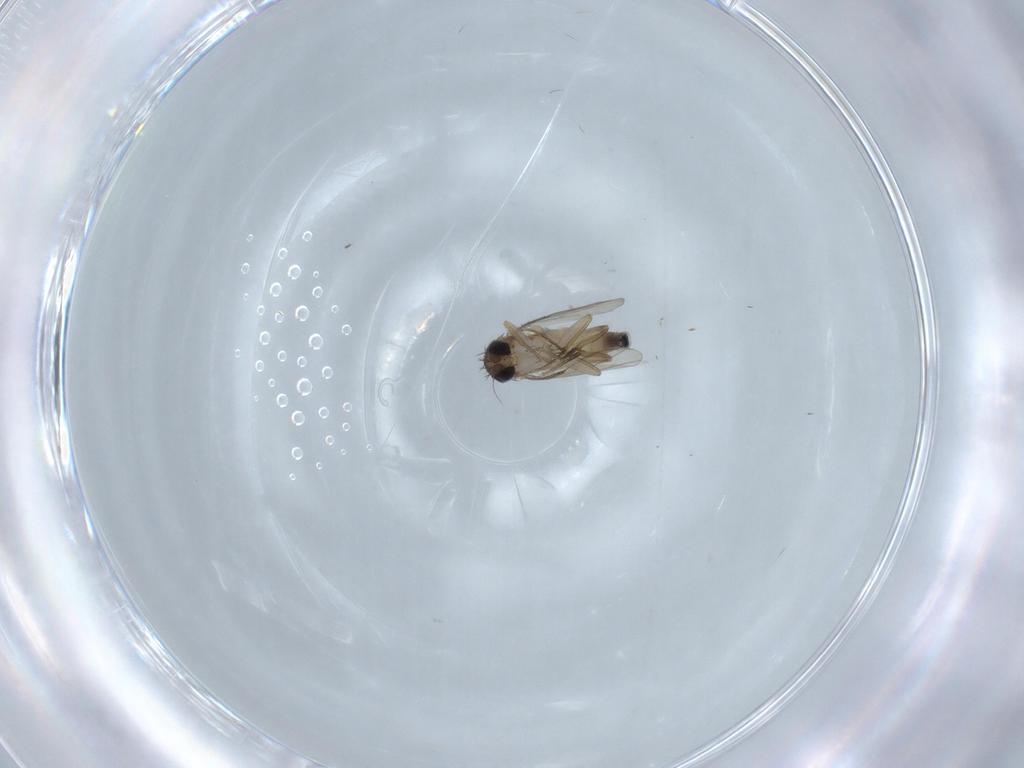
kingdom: Animalia
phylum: Arthropoda
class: Insecta
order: Diptera
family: Phoridae
